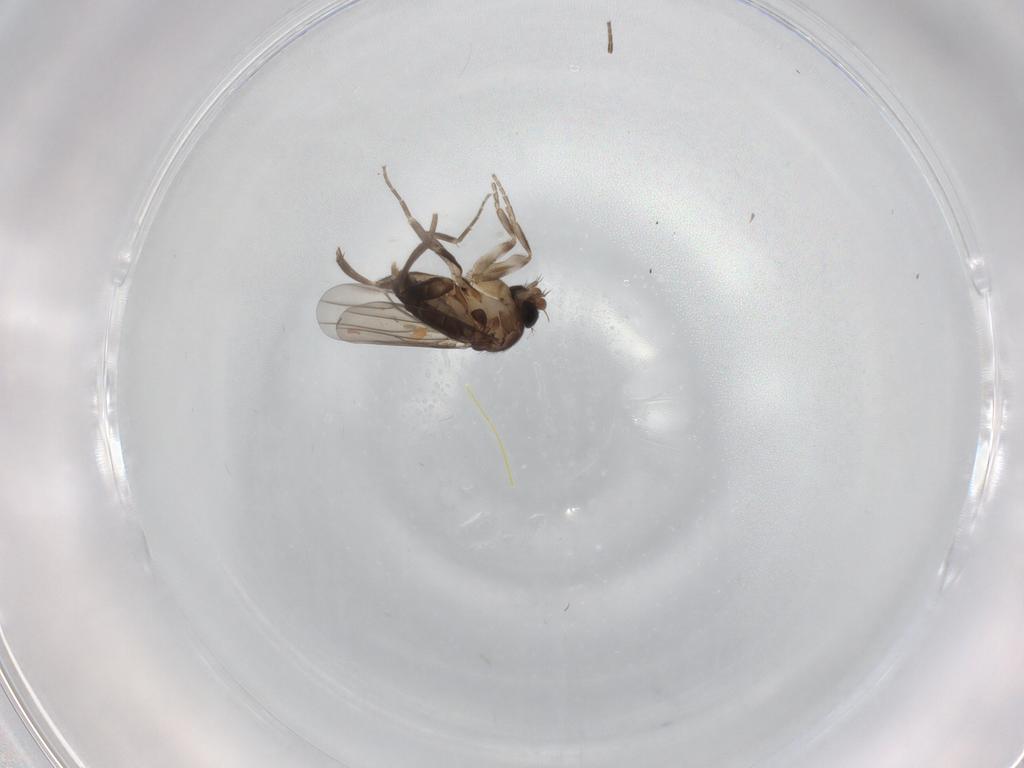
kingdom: Animalia
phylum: Arthropoda
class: Insecta
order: Diptera
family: Phoridae
